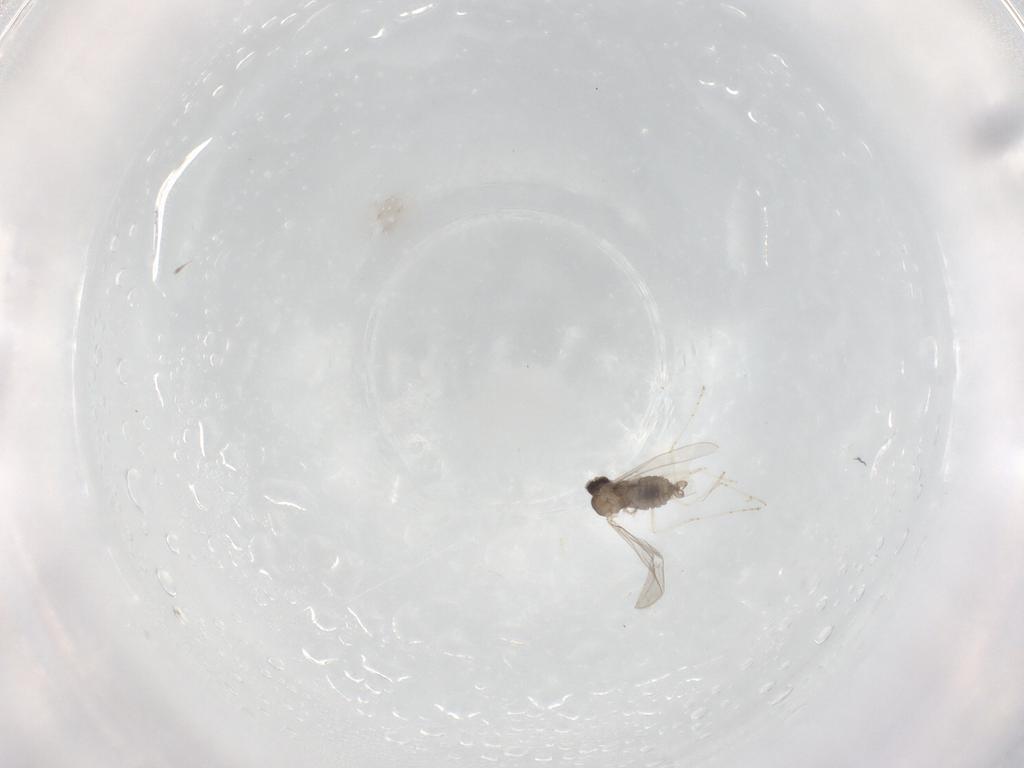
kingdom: Animalia
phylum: Arthropoda
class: Insecta
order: Diptera
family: Cecidomyiidae
